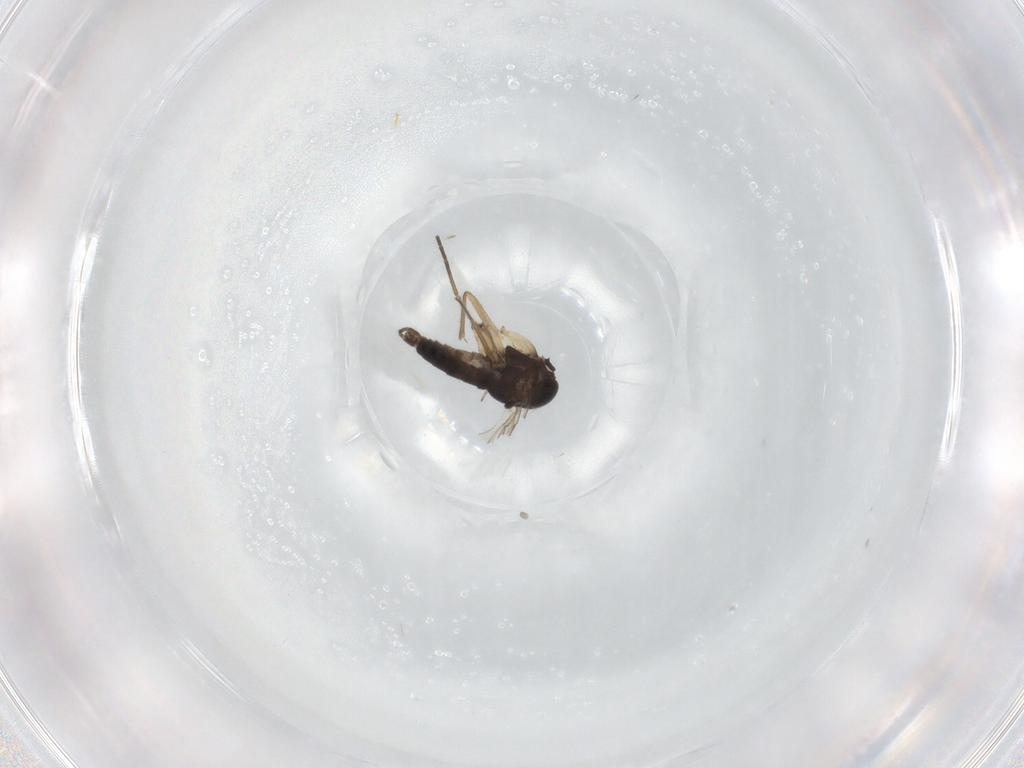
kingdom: Animalia
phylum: Arthropoda
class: Insecta
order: Diptera
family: Sciaridae
